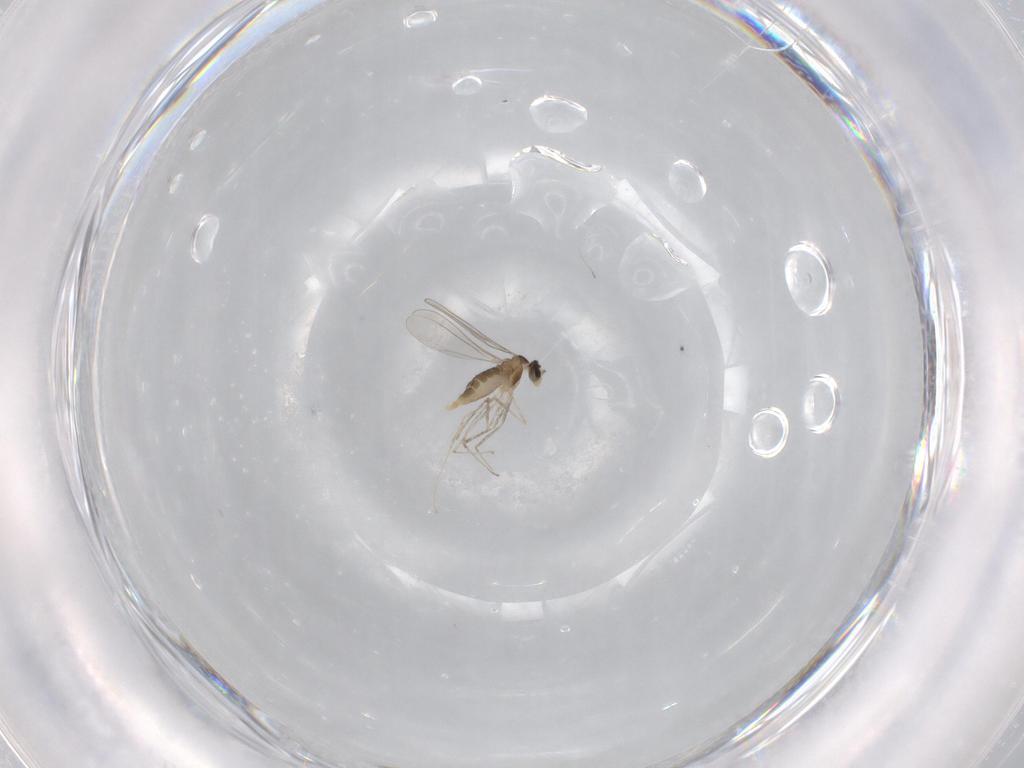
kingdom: Animalia
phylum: Arthropoda
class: Insecta
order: Diptera
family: Cecidomyiidae
